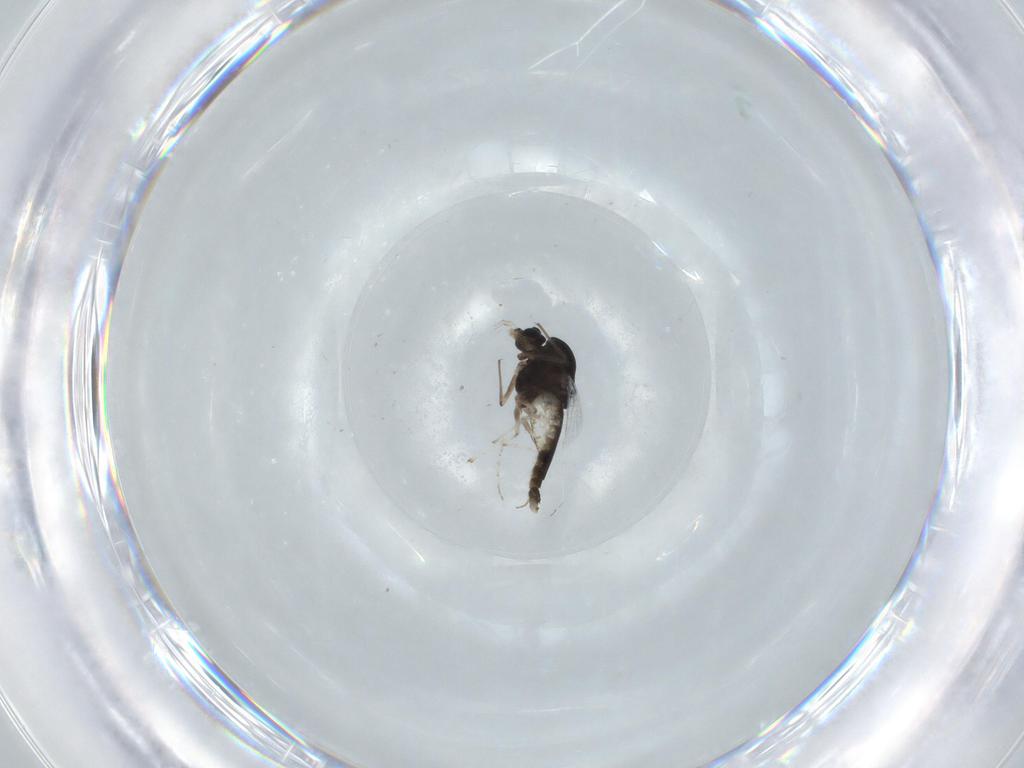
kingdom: Animalia
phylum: Arthropoda
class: Insecta
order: Diptera
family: Chironomidae
